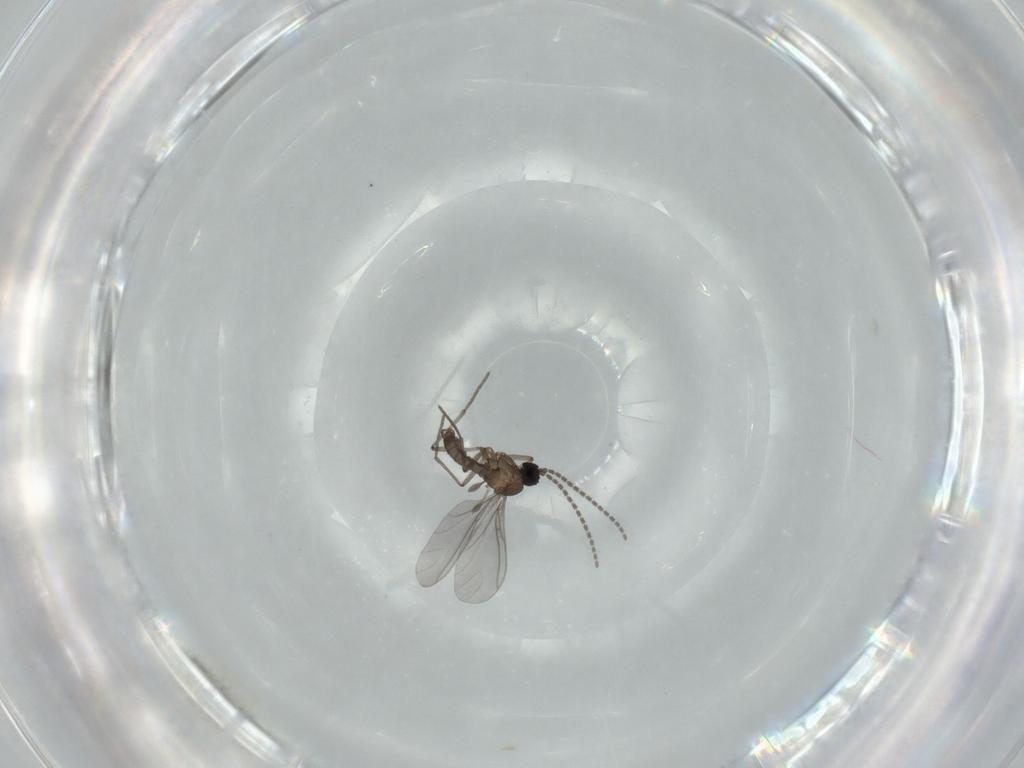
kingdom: Animalia
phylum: Arthropoda
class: Insecta
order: Diptera
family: Sciaridae
